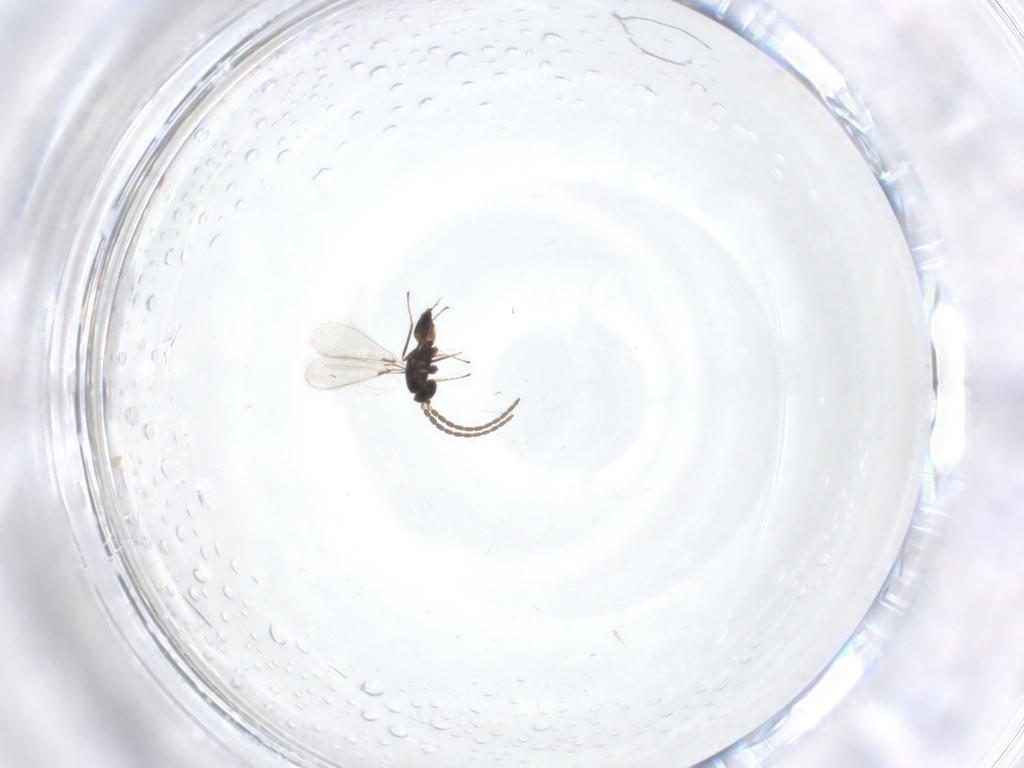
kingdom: Animalia
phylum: Arthropoda
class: Insecta
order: Hymenoptera
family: Mymaridae
